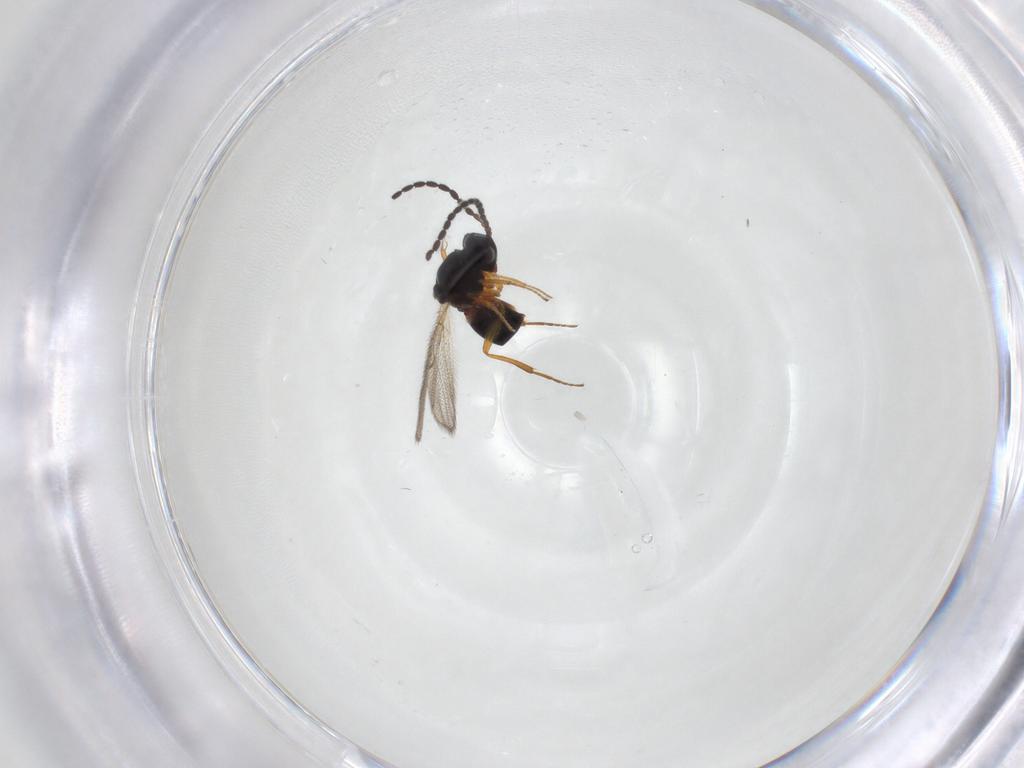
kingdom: Animalia
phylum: Arthropoda
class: Insecta
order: Hymenoptera
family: Figitidae
